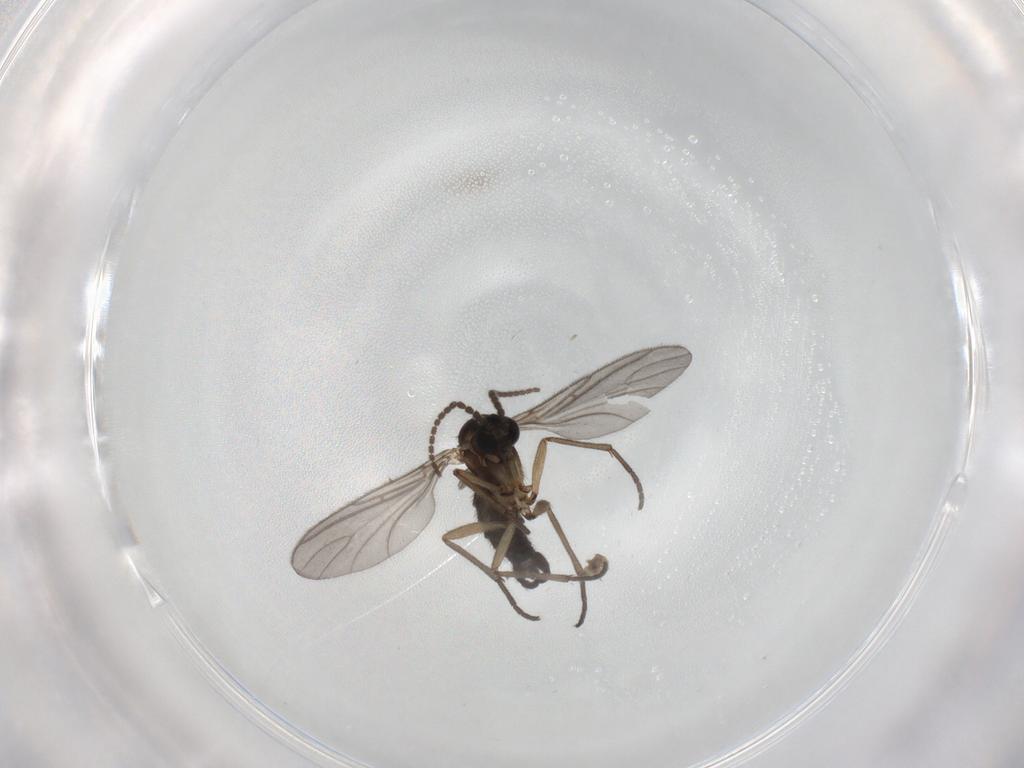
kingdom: Animalia
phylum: Arthropoda
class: Insecta
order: Diptera
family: Sciaridae
